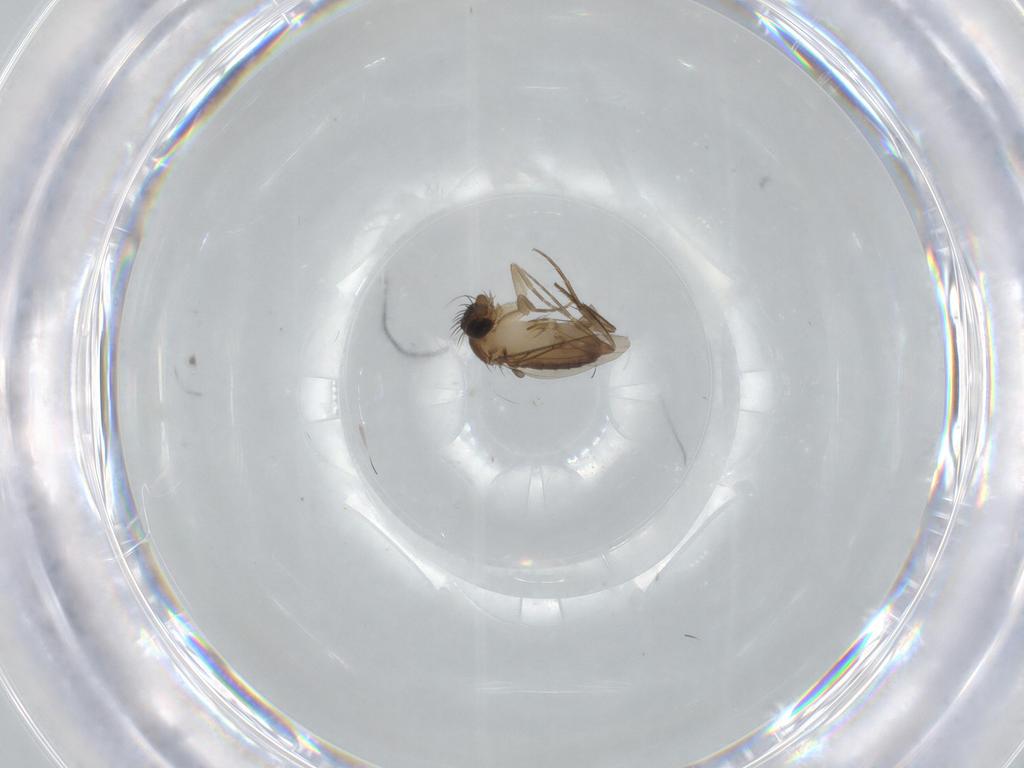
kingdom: Animalia
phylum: Arthropoda
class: Insecta
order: Diptera
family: Phoridae
